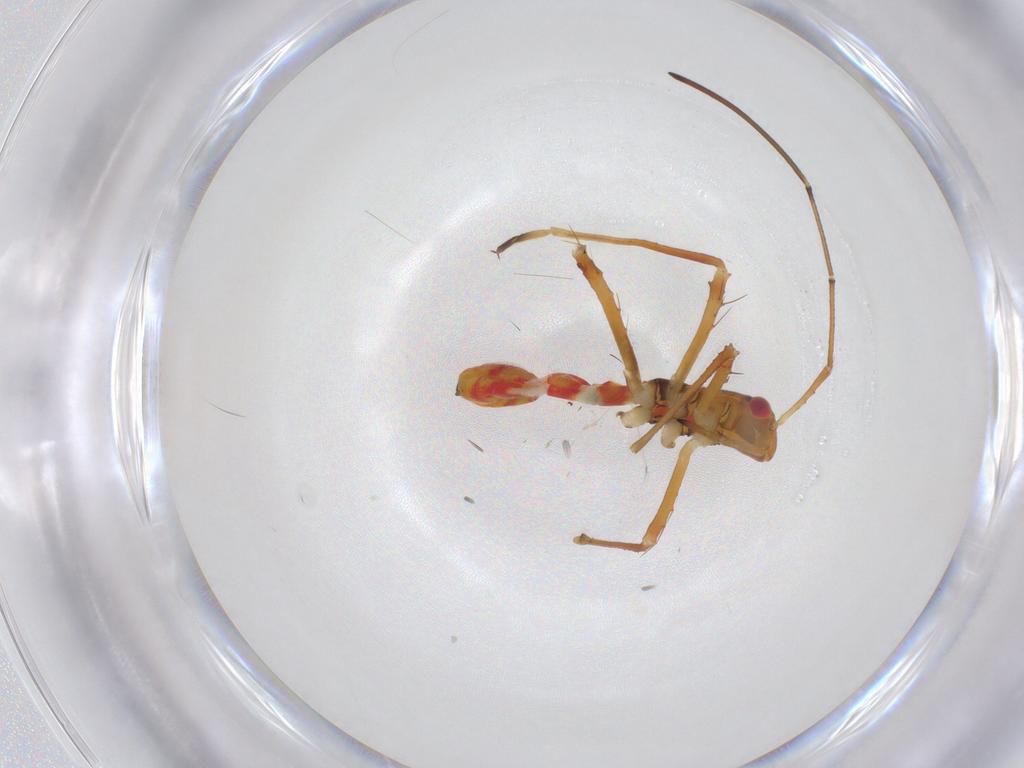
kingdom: Animalia
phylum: Arthropoda
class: Insecta
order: Hemiptera
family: Colobathristidae
